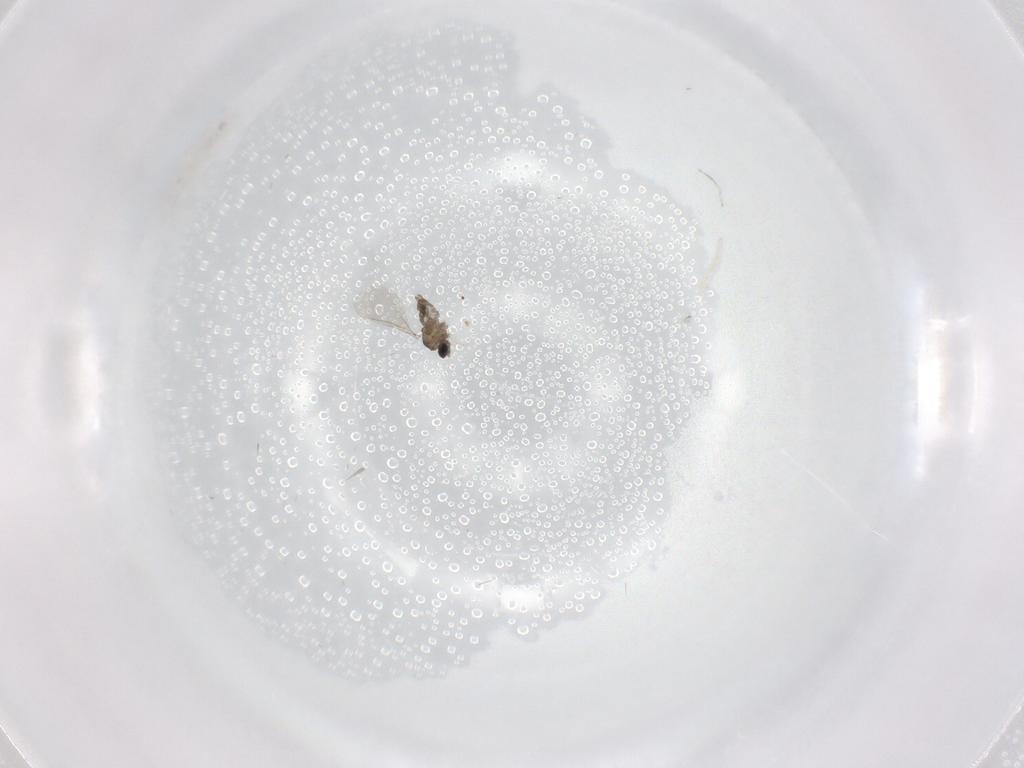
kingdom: Animalia
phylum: Arthropoda
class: Insecta
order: Diptera
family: Cecidomyiidae
